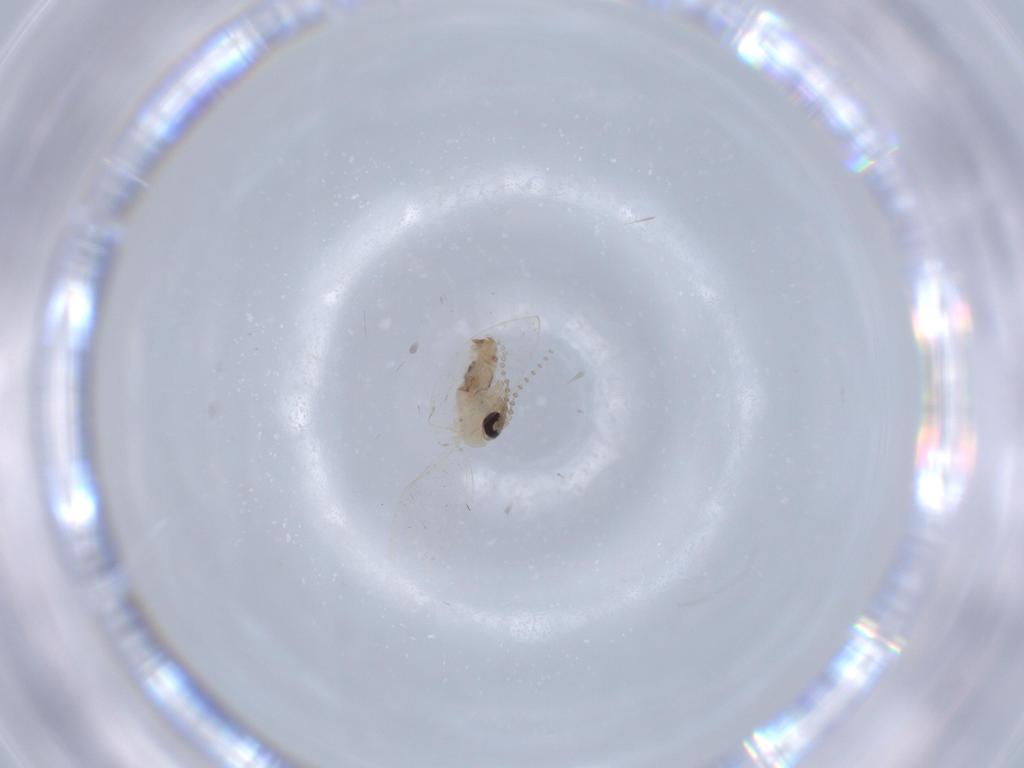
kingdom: Animalia
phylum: Arthropoda
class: Insecta
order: Diptera
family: Psychodidae
